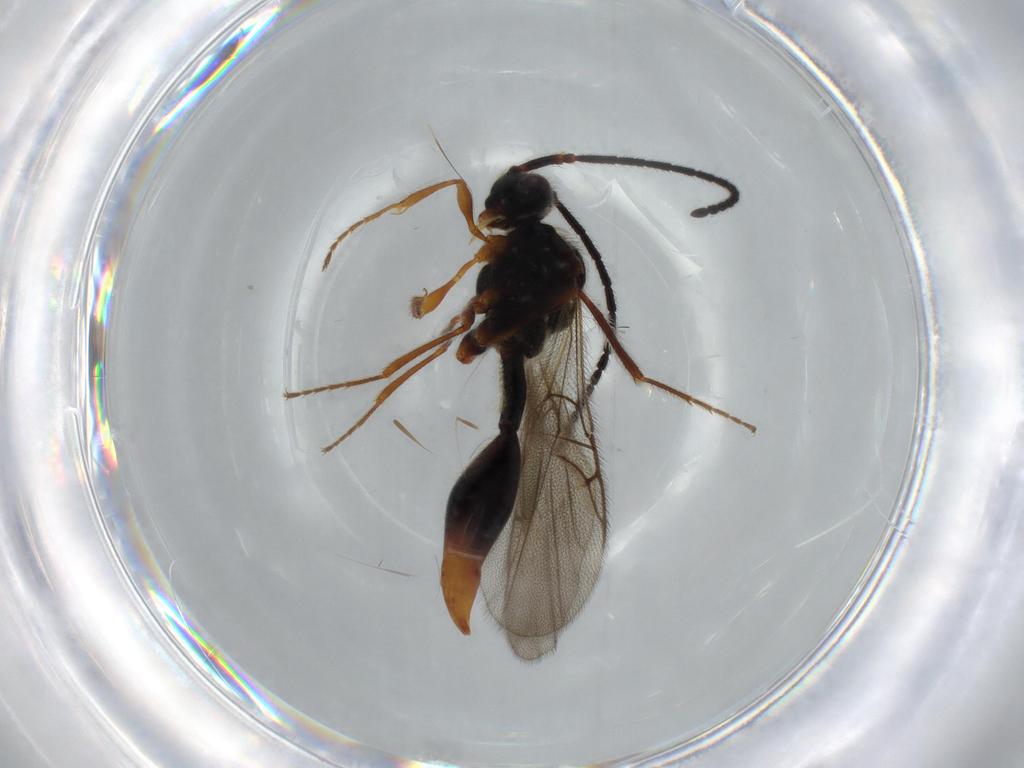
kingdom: Animalia
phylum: Arthropoda
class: Insecta
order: Hymenoptera
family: Diapriidae
